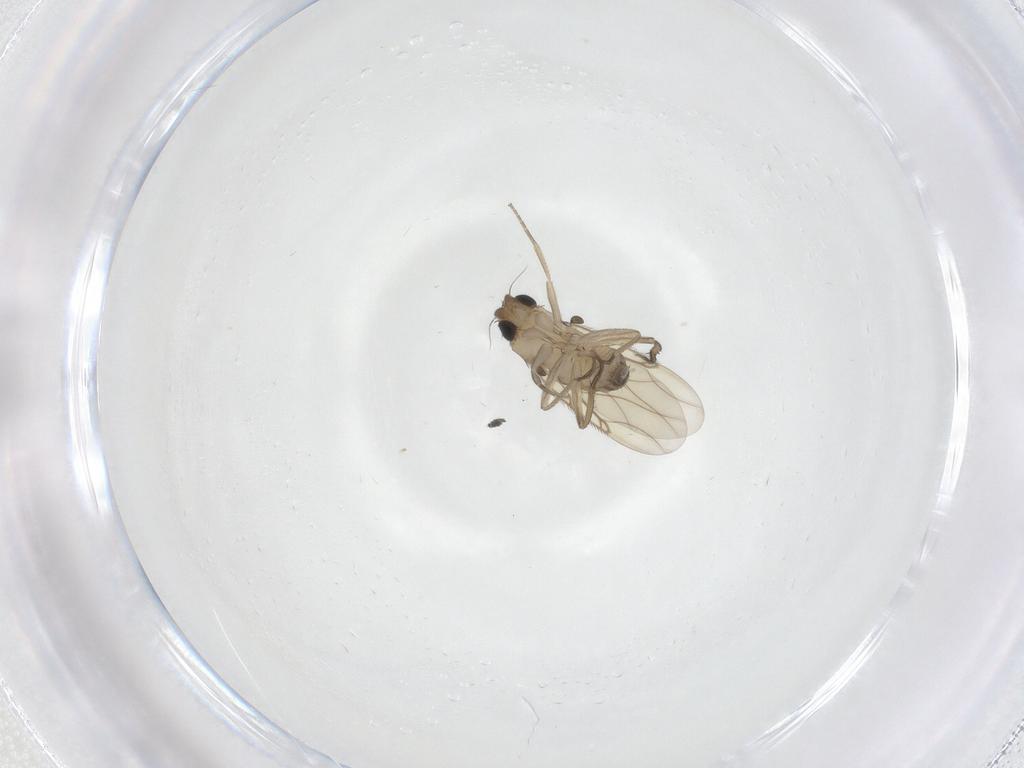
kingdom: Animalia
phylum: Arthropoda
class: Insecta
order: Diptera
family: Phoridae
